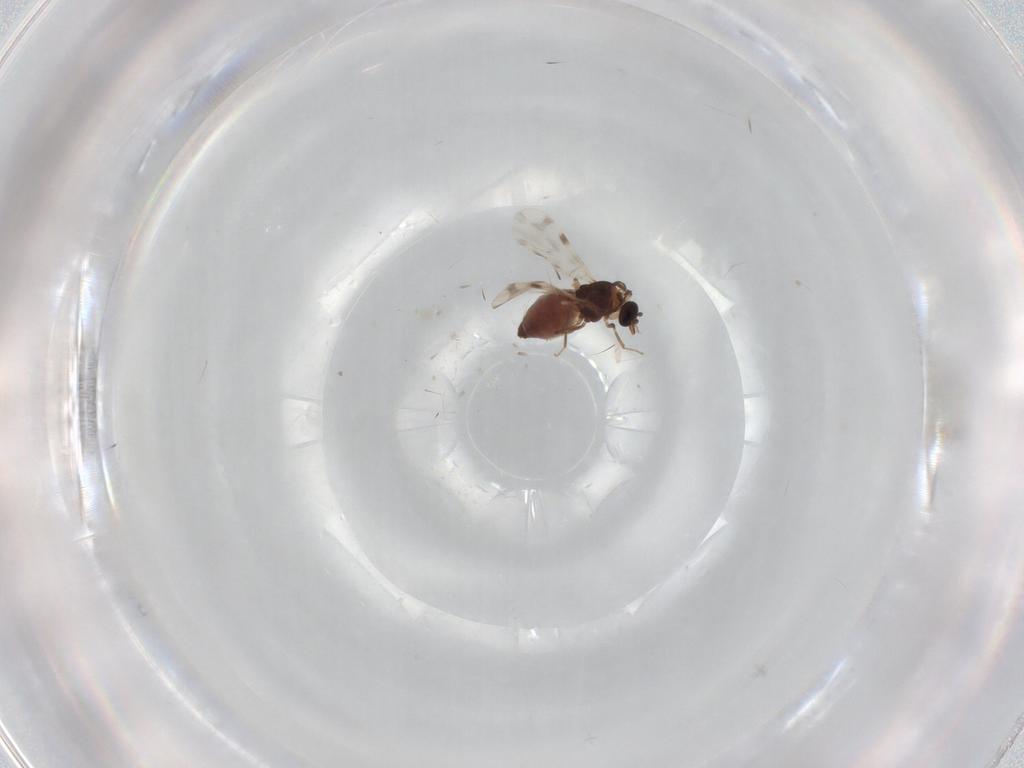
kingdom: Animalia
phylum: Arthropoda
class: Insecta
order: Diptera
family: Ceratopogonidae
